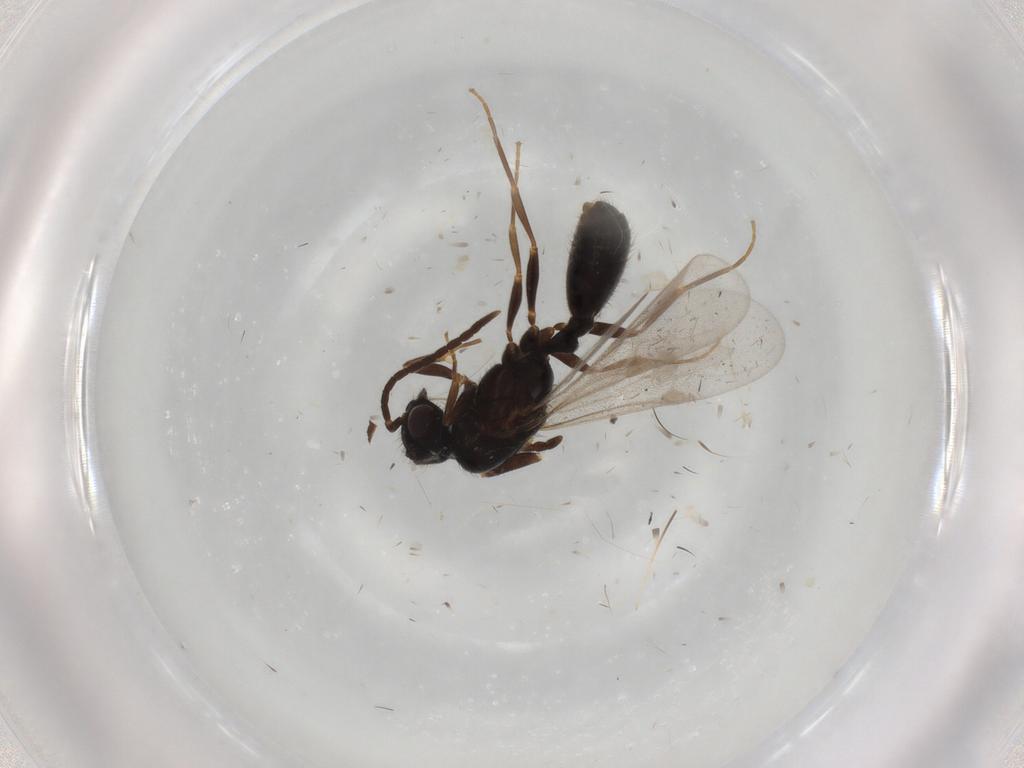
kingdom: Animalia
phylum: Arthropoda
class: Insecta
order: Hymenoptera
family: Formicidae
